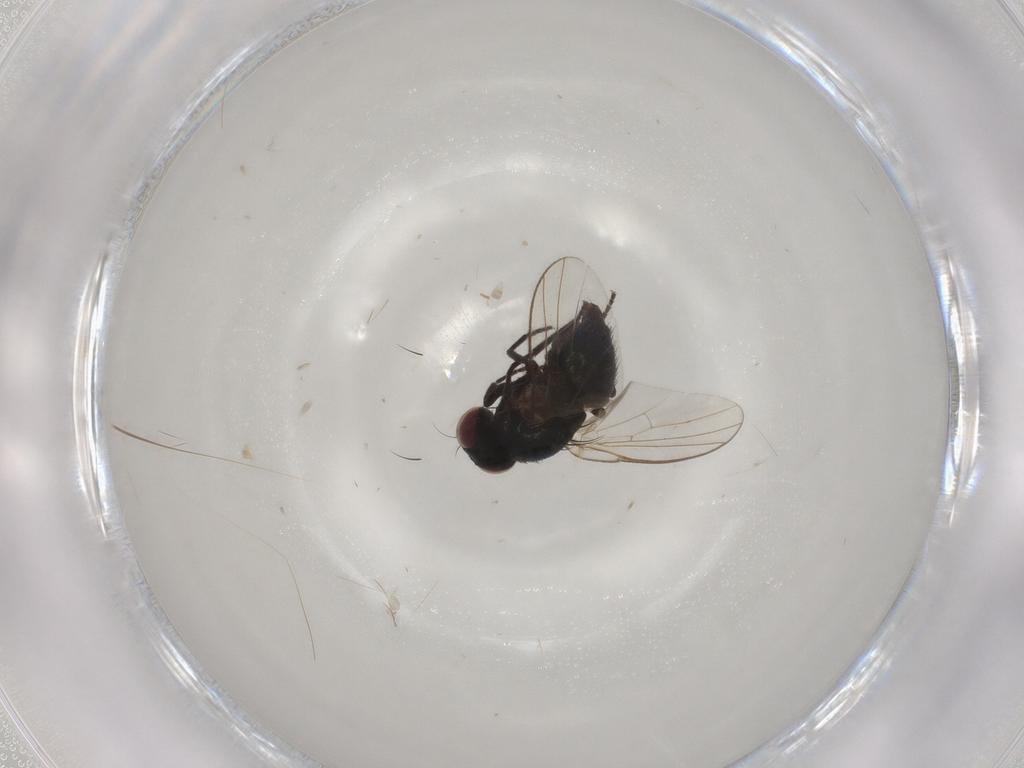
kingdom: Animalia
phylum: Arthropoda
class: Insecta
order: Diptera
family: Agromyzidae
